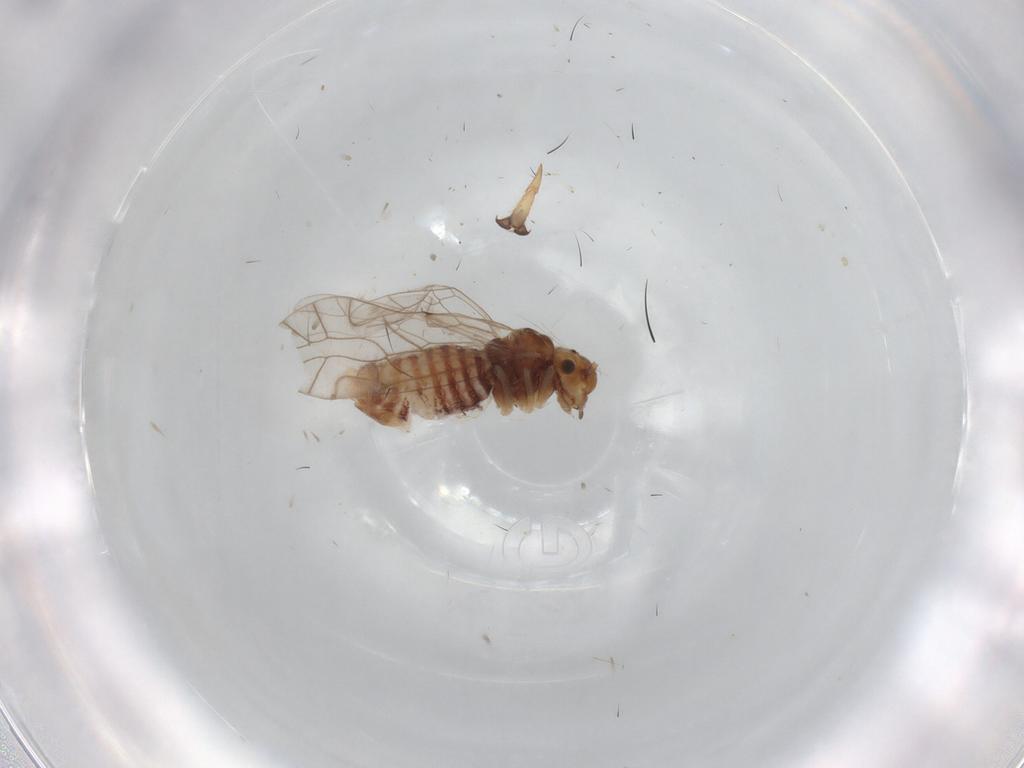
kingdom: Animalia
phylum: Arthropoda
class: Insecta
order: Psocodea
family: Lachesillidae
